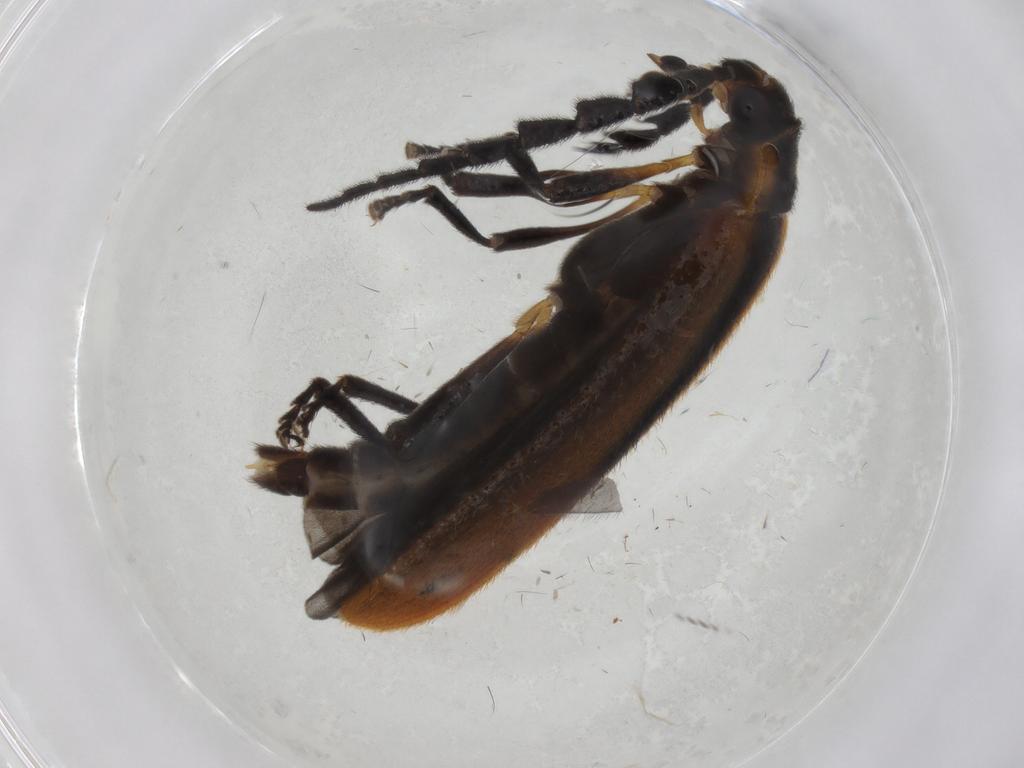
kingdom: Animalia
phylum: Arthropoda
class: Insecta
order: Coleoptera
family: Lycidae
